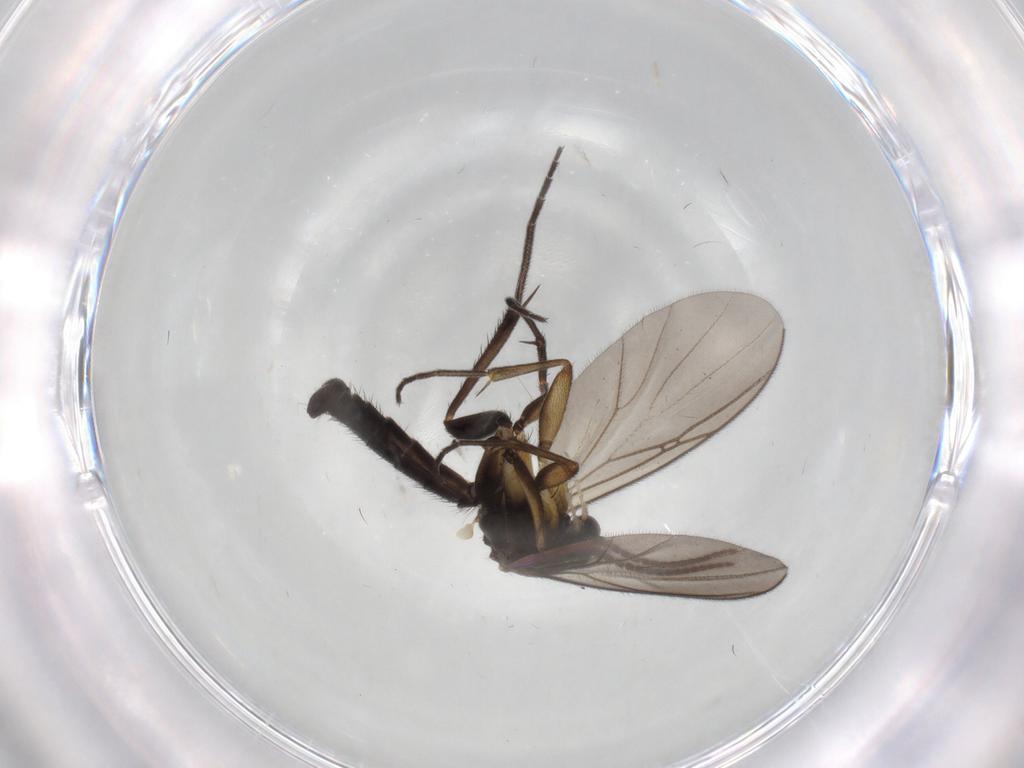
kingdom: Animalia
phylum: Arthropoda
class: Insecta
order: Diptera
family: Mycetophilidae
